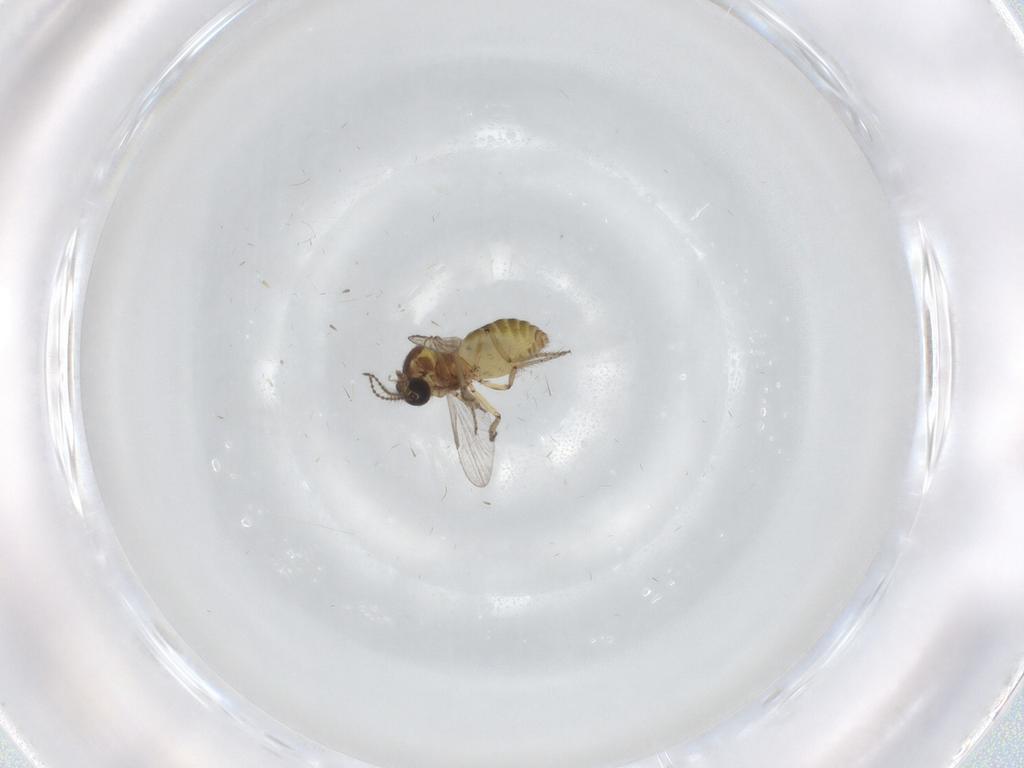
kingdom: Animalia
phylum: Arthropoda
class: Insecta
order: Diptera
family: Ceratopogonidae
